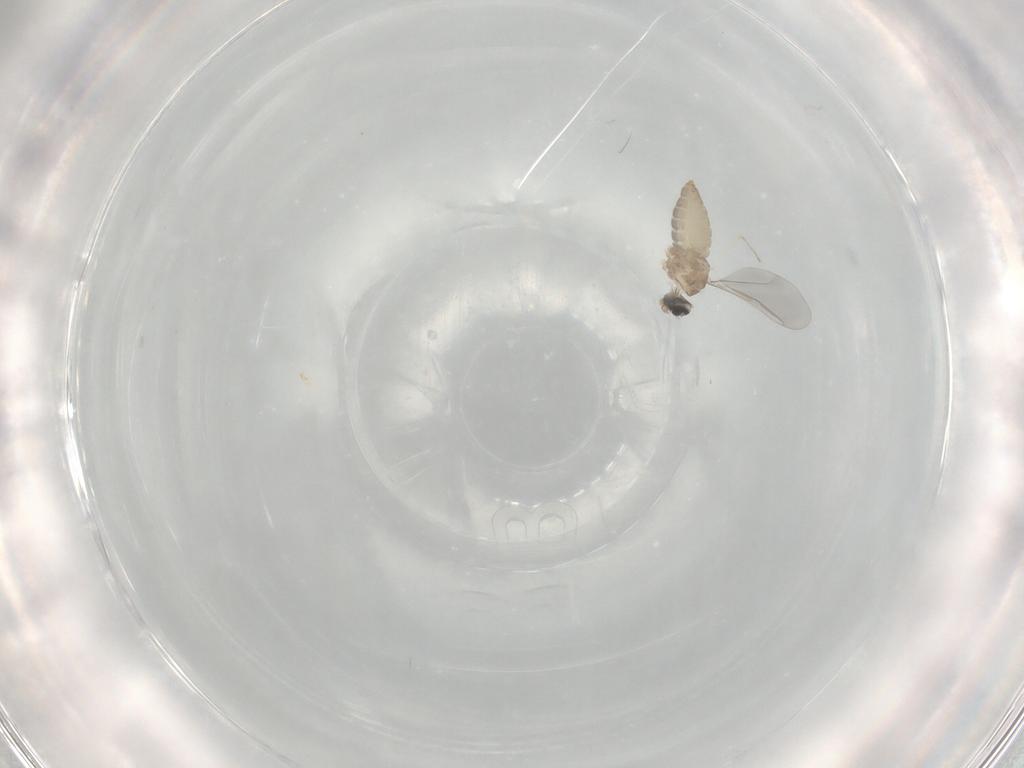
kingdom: Animalia
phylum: Arthropoda
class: Insecta
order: Diptera
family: Cecidomyiidae
